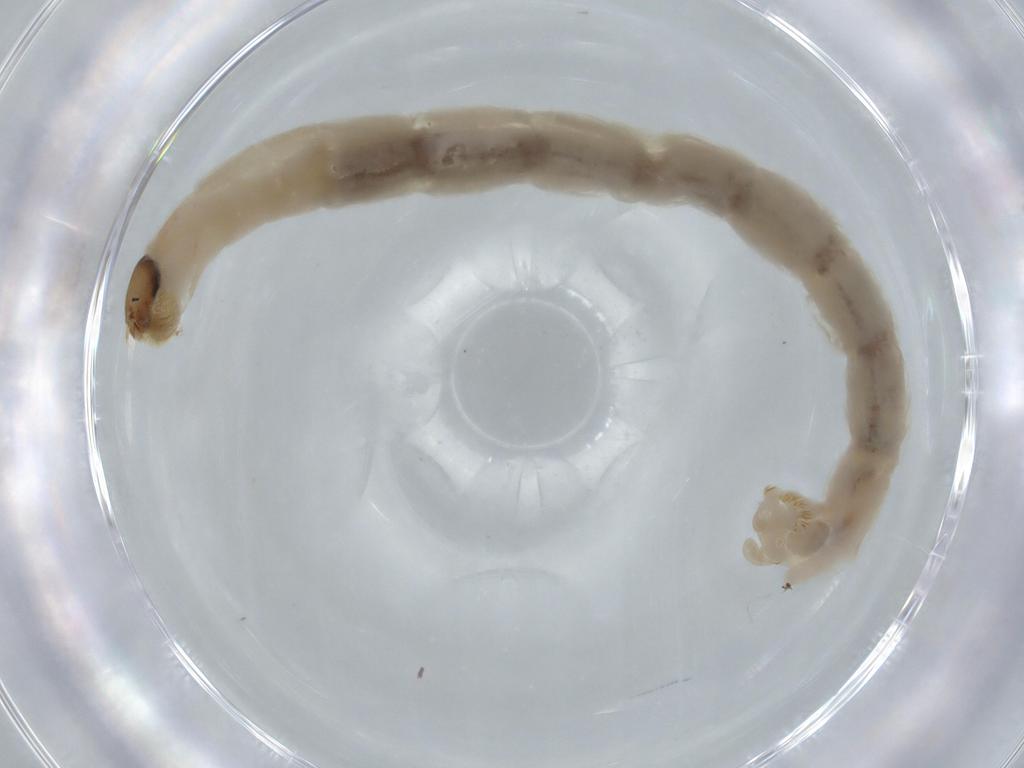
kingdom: Animalia
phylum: Arthropoda
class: Insecta
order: Diptera
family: Chironomidae
